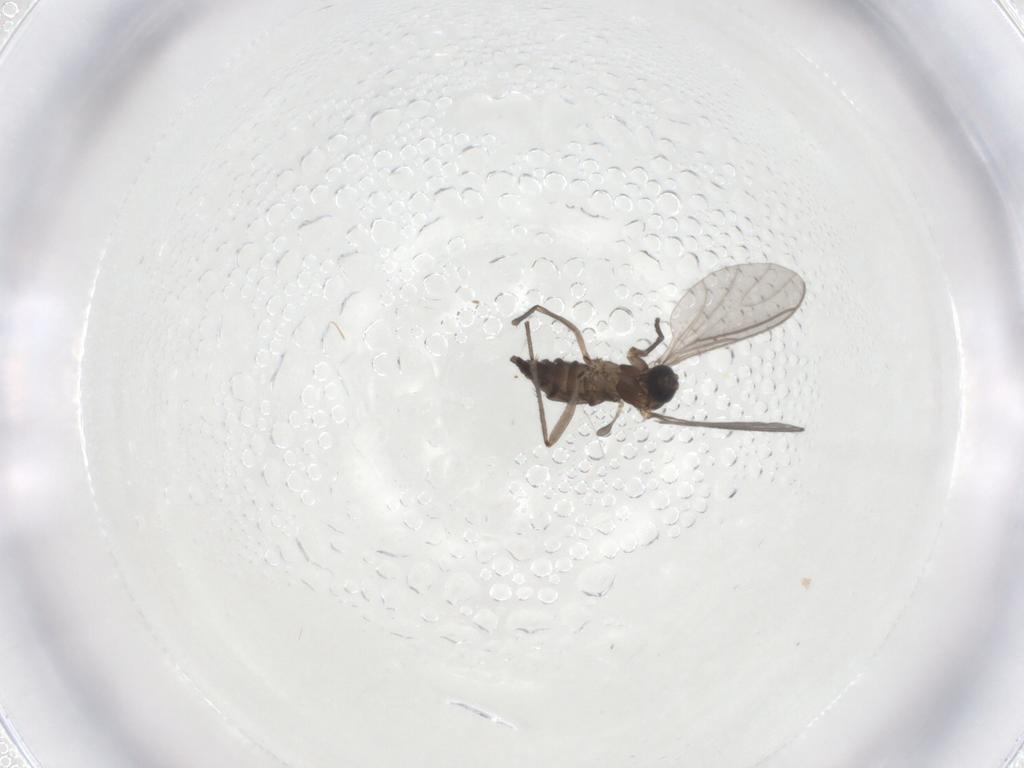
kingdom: Animalia
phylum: Arthropoda
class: Insecta
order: Diptera
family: Sciaridae
